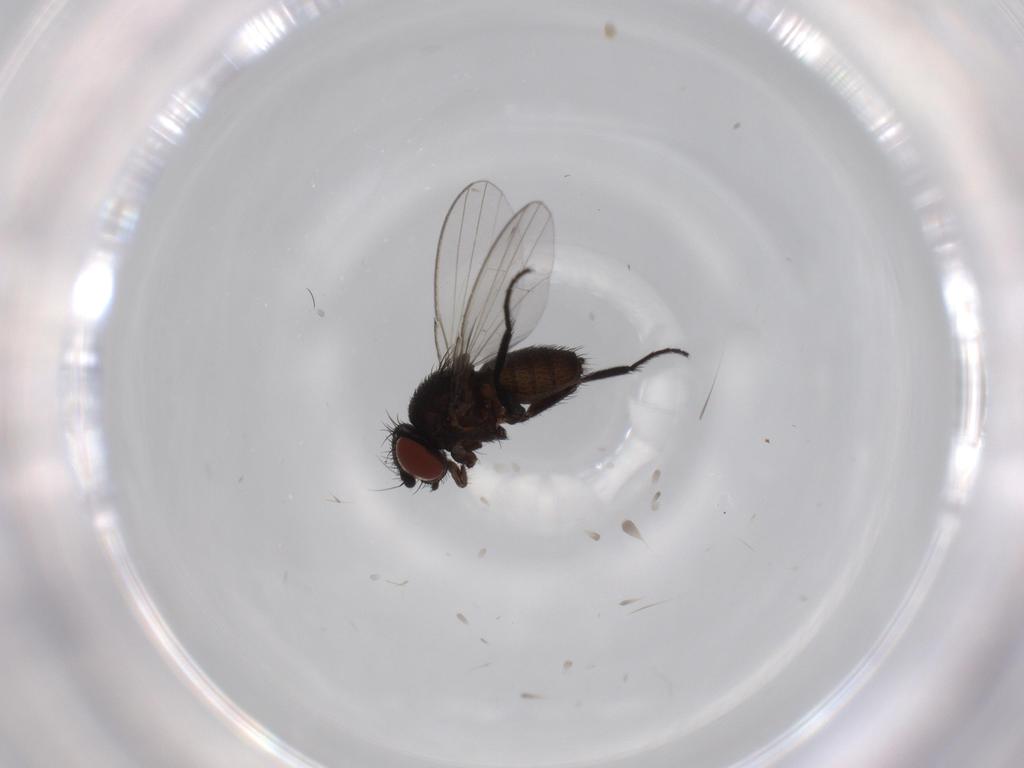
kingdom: Animalia
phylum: Arthropoda
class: Insecta
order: Diptera
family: Milichiidae
